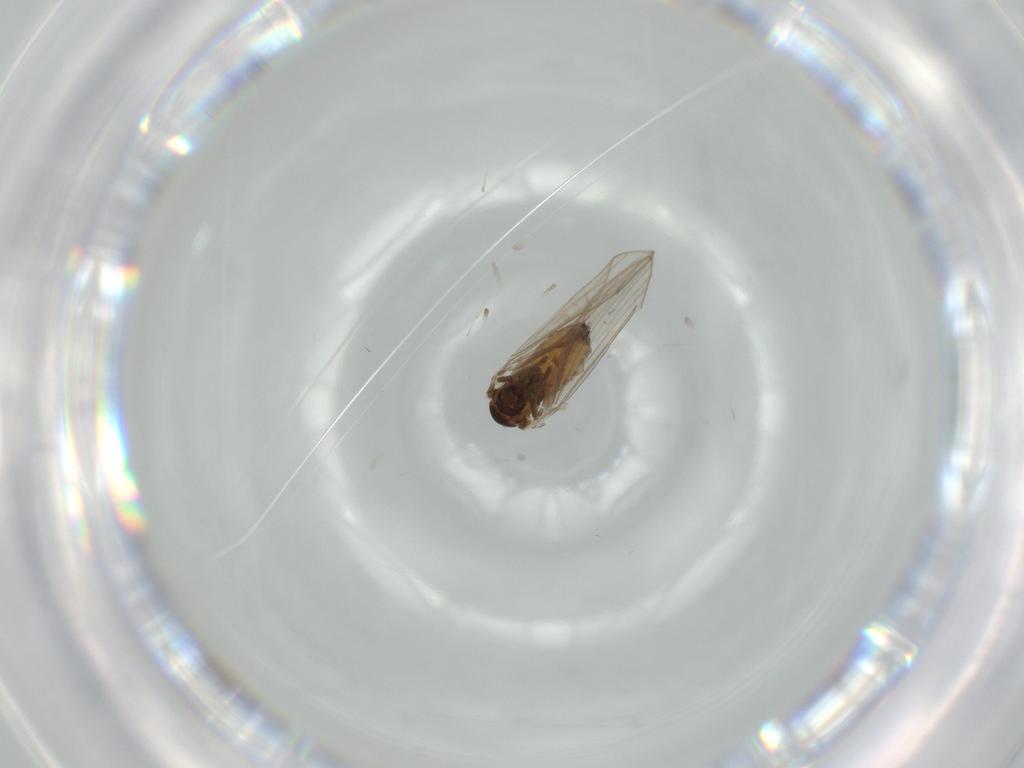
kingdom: Animalia
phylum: Arthropoda
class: Insecta
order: Diptera
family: Psychodidae
